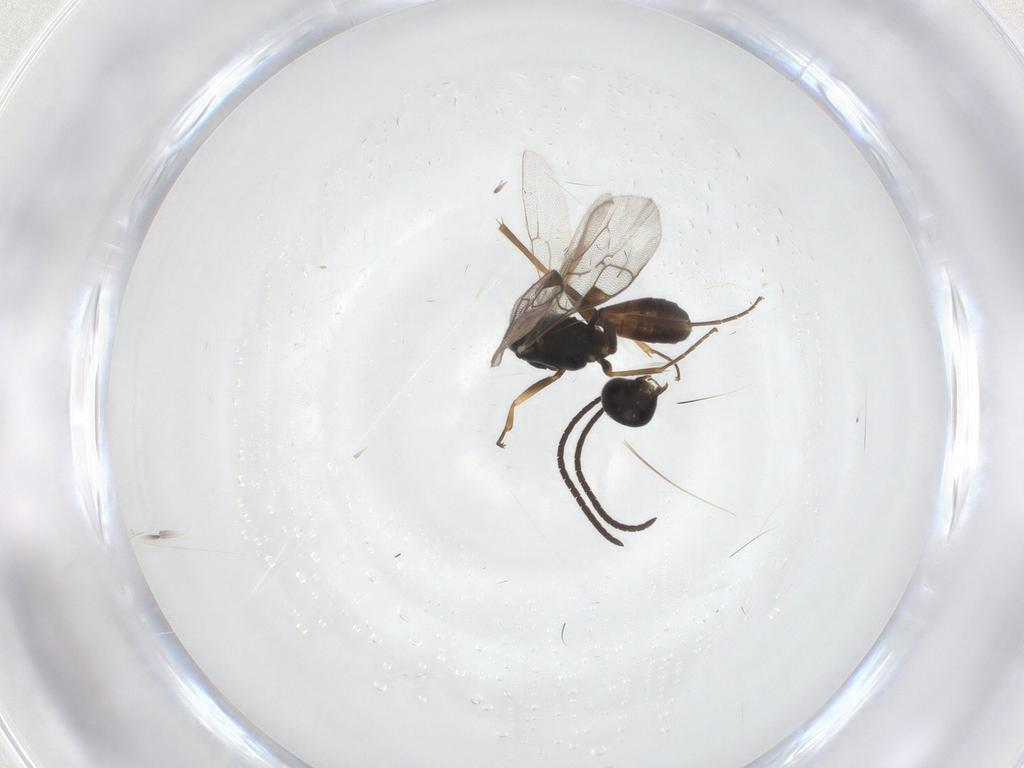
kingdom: Animalia
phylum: Arthropoda
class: Insecta
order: Hymenoptera
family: Ichneumonidae
